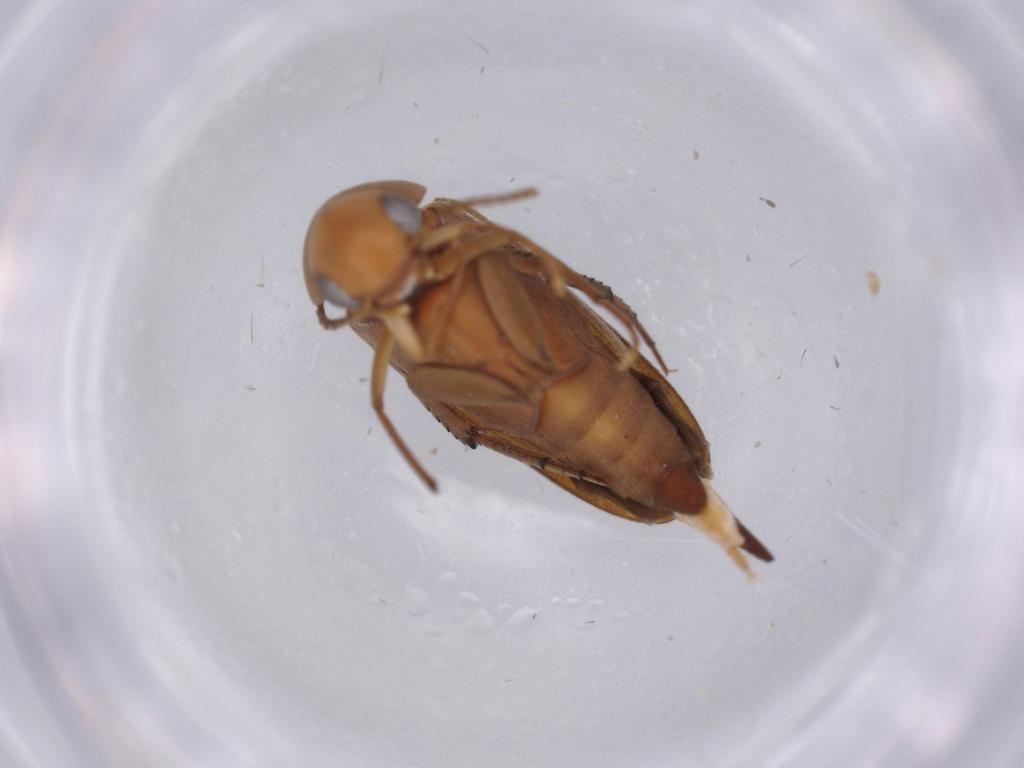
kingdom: Animalia
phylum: Arthropoda
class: Insecta
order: Coleoptera
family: Mordellidae
